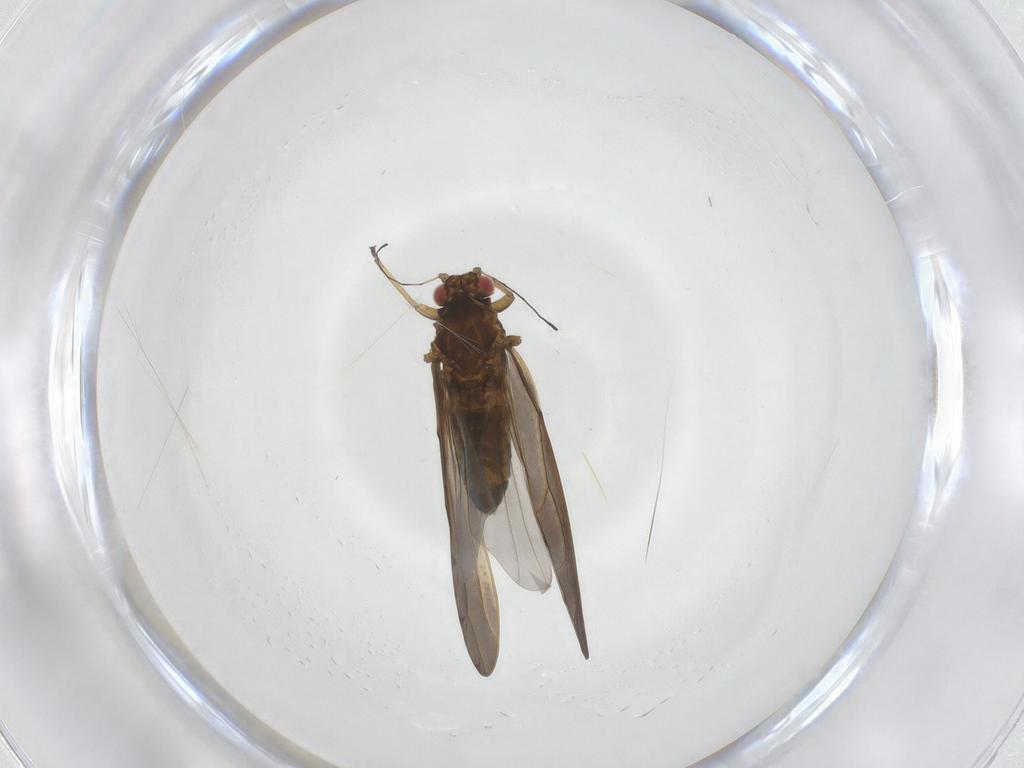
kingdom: Animalia
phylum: Arthropoda
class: Insecta
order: Hemiptera
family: Triozidae
